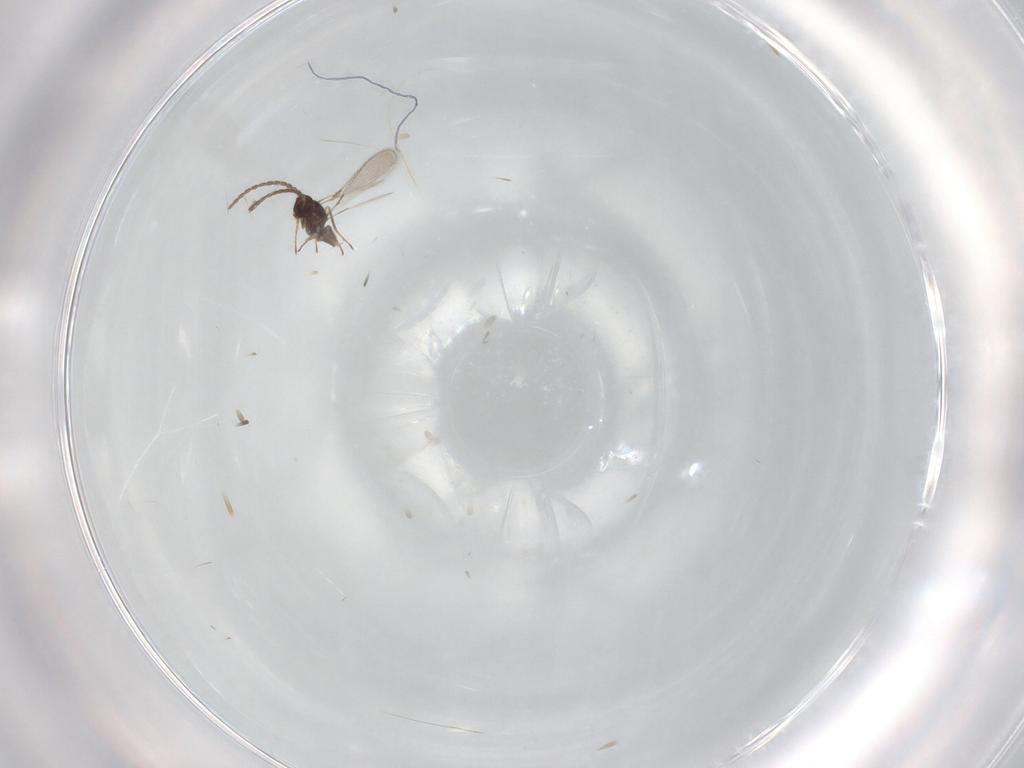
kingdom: Animalia
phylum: Arthropoda
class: Insecta
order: Hymenoptera
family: Mymaridae
